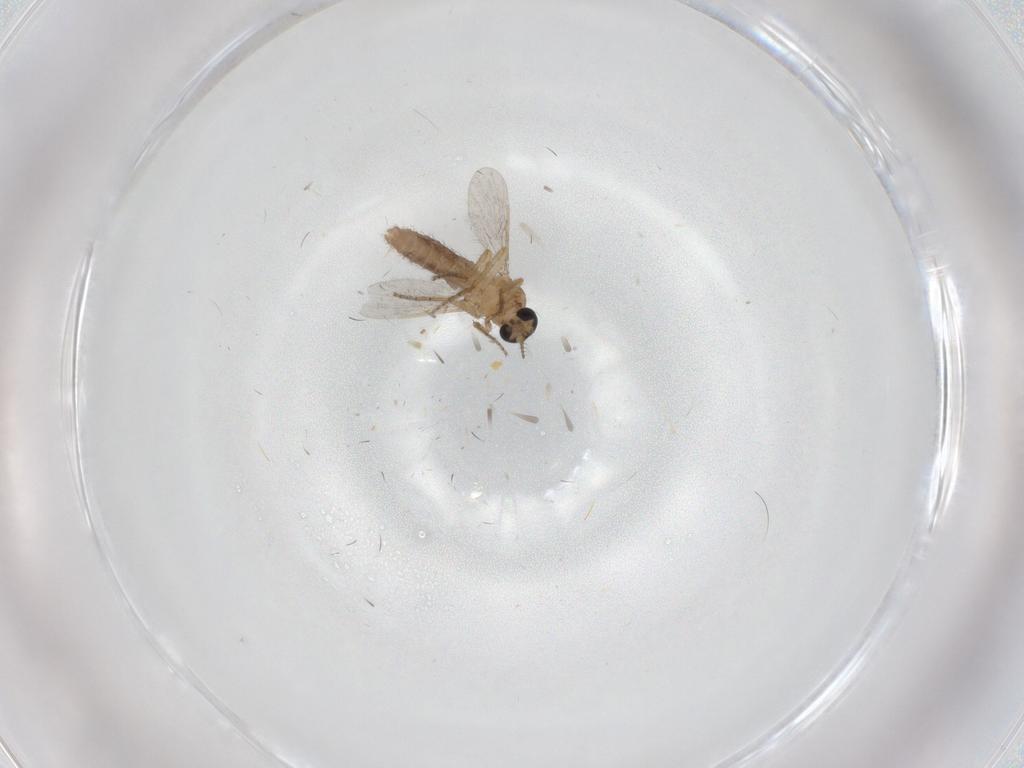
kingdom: Animalia
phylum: Arthropoda
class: Insecta
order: Diptera
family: Ceratopogonidae
